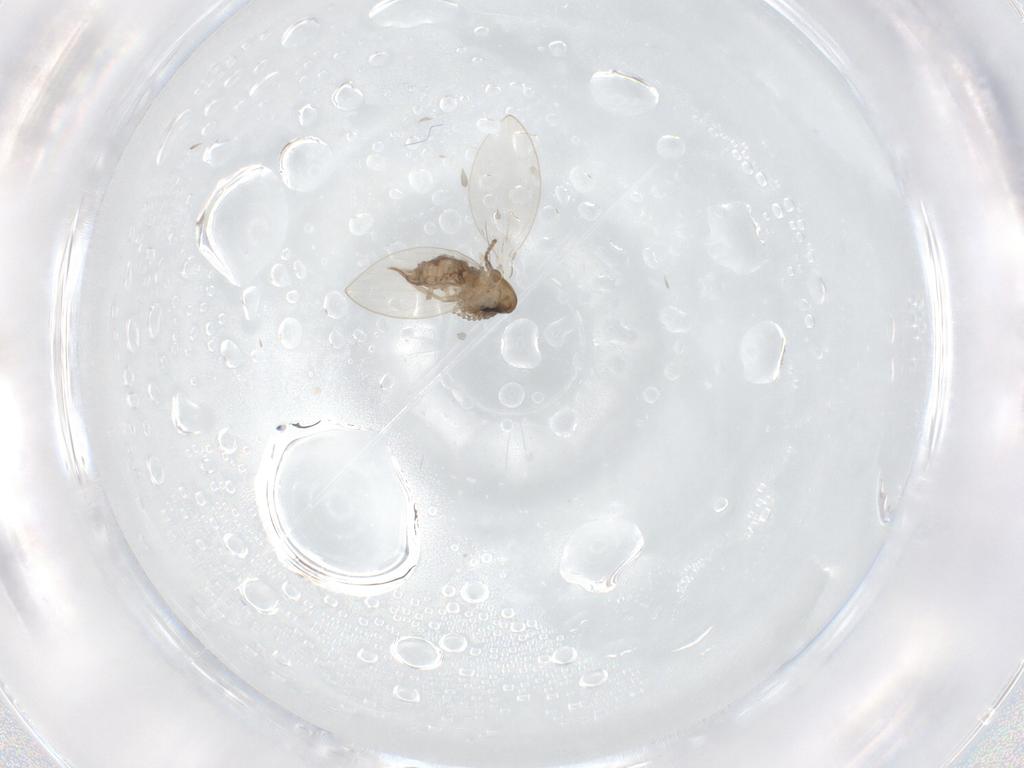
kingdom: Animalia
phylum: Arthropoda
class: Insecta
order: Diptera
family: Psychodidae
